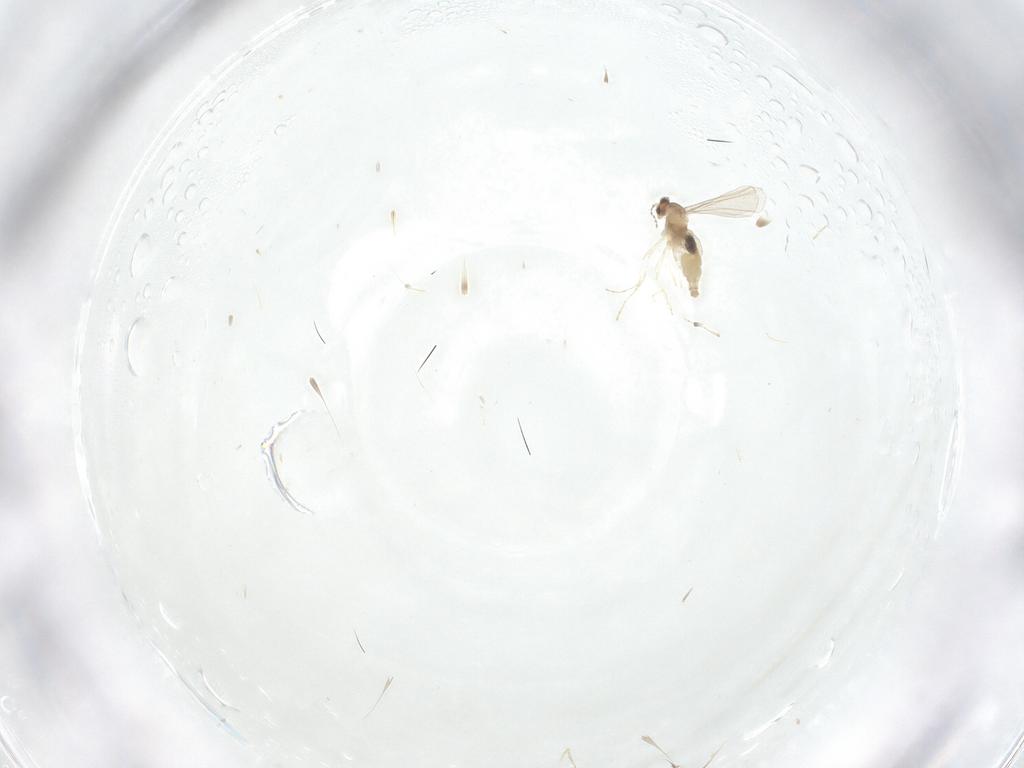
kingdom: Animalia
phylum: Arthropoda
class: Insecta
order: Diptera
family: Cecidomyiidae
